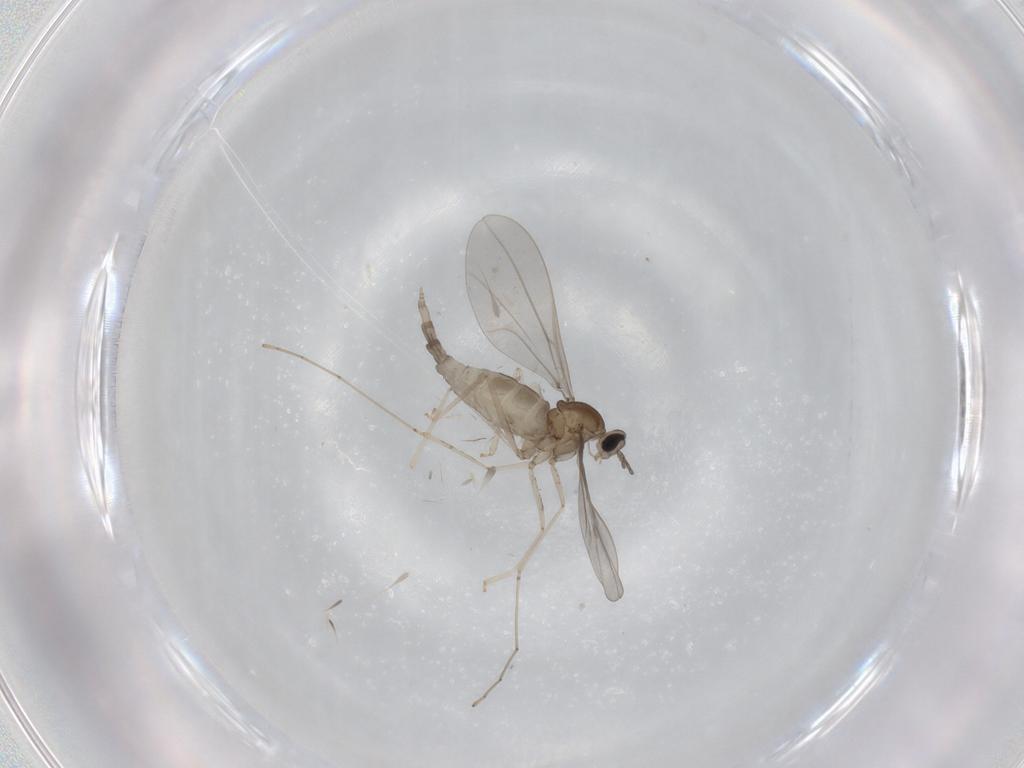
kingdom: Animalia
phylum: Arthropoda
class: Insecta
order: Diptera
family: Cecidomyiidae
